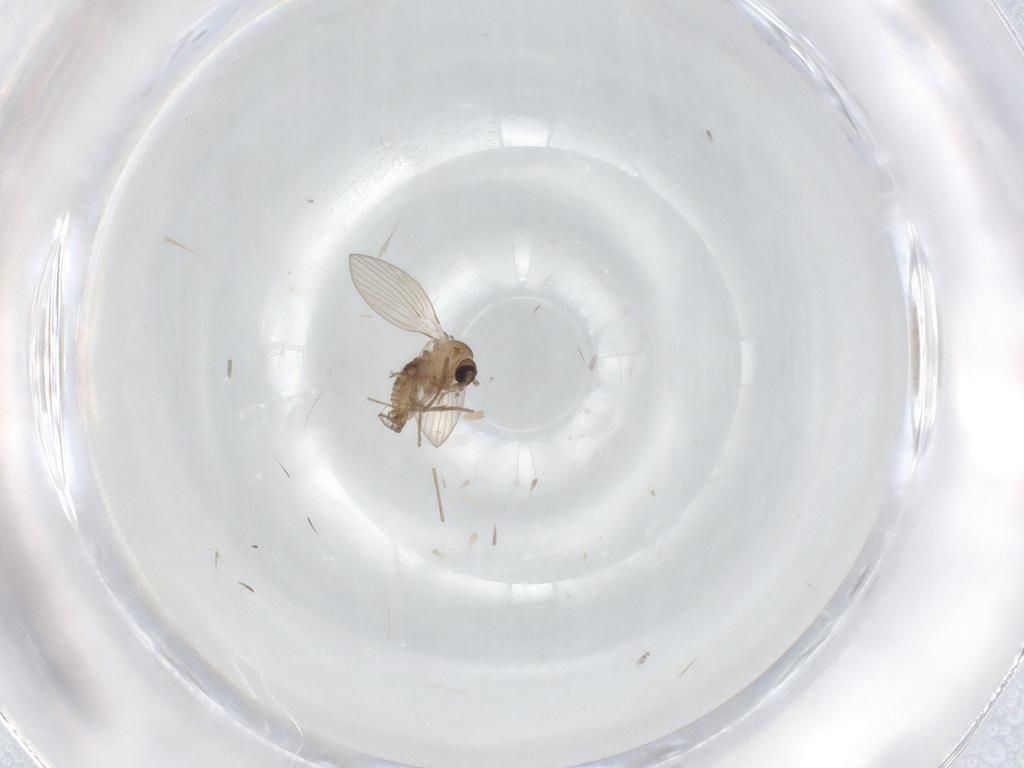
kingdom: Animalia
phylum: Arthropoda
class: Insecta
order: Diptera
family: Psychodidae
